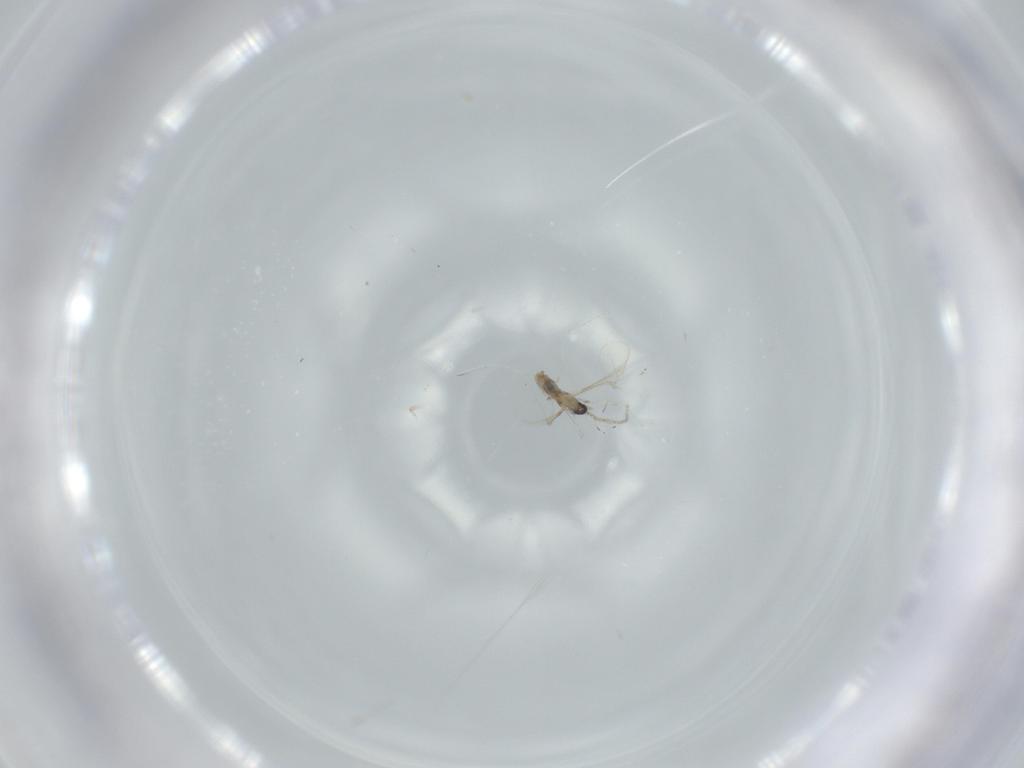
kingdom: Animalia
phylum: Arthropoda
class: Insecta
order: Diptera
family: Cecidomyiidae
